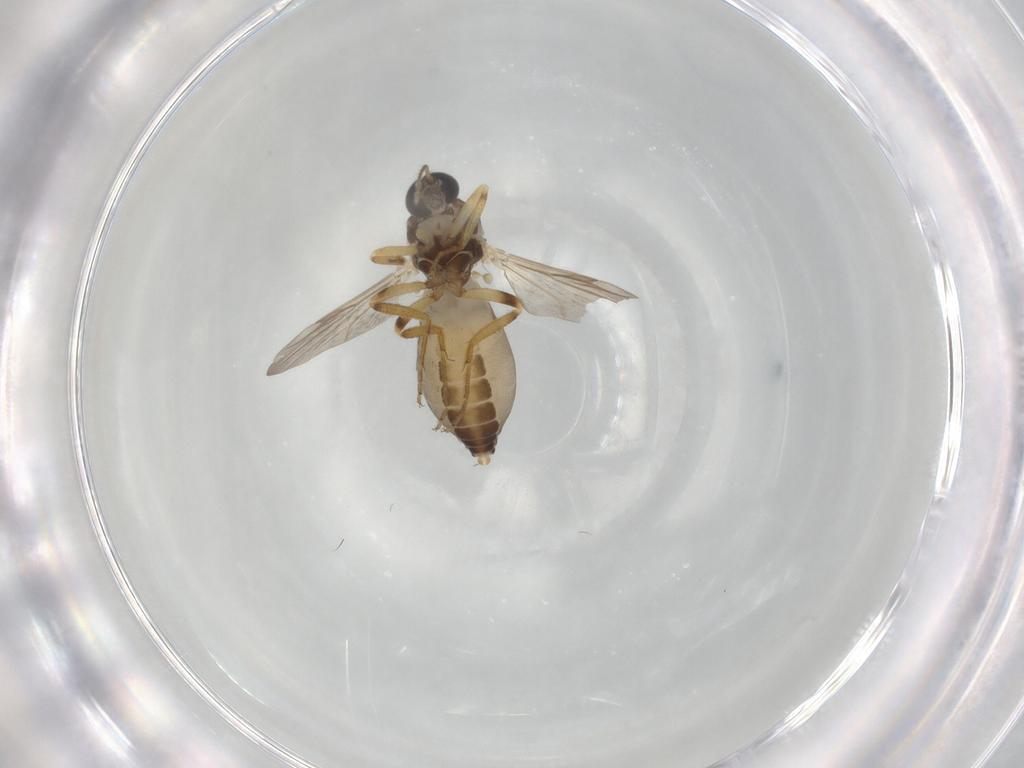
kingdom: Animalia
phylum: Arthropoda
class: Insecta
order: Diptera
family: Ceratopogonidae
